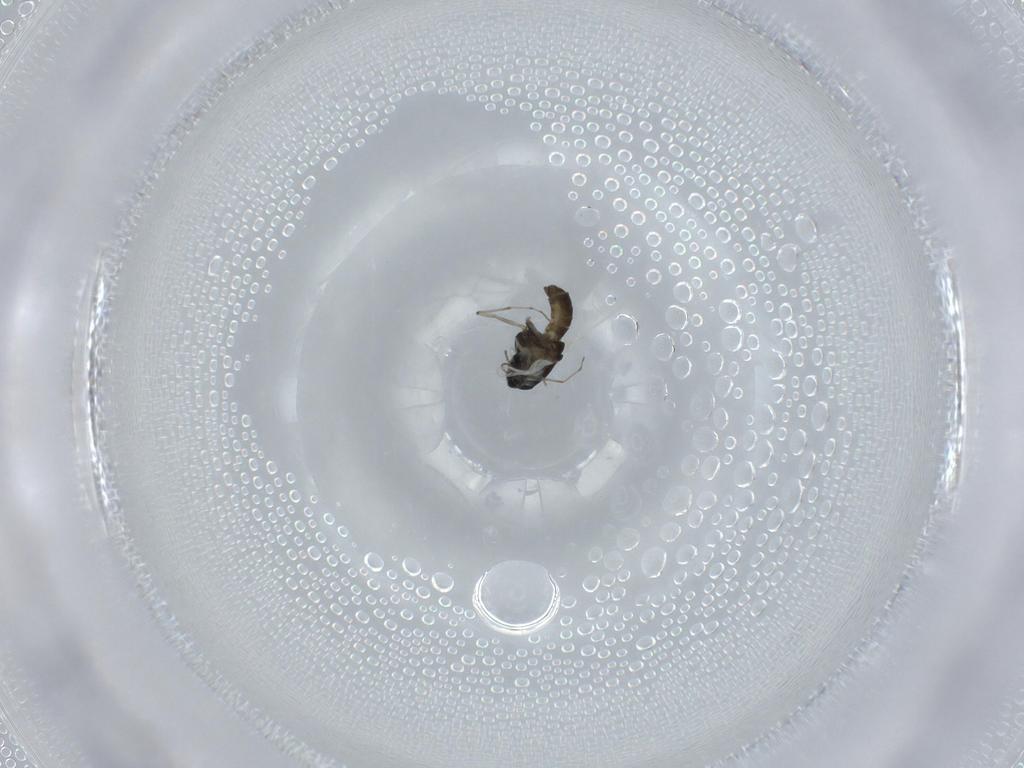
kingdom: Animalia
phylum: Arthropoda
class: Insecta
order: Diptera
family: Chironomidae
